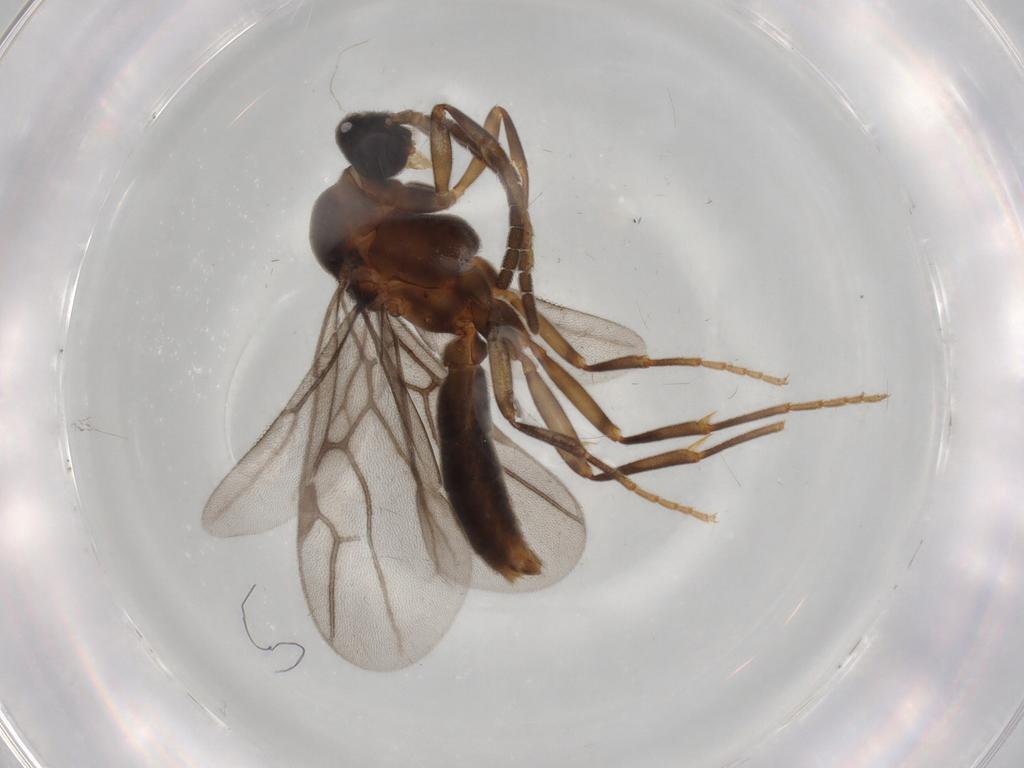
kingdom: Animalia
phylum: Arthropoda
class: Insecta
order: Hymenoptera
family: Formicidae
